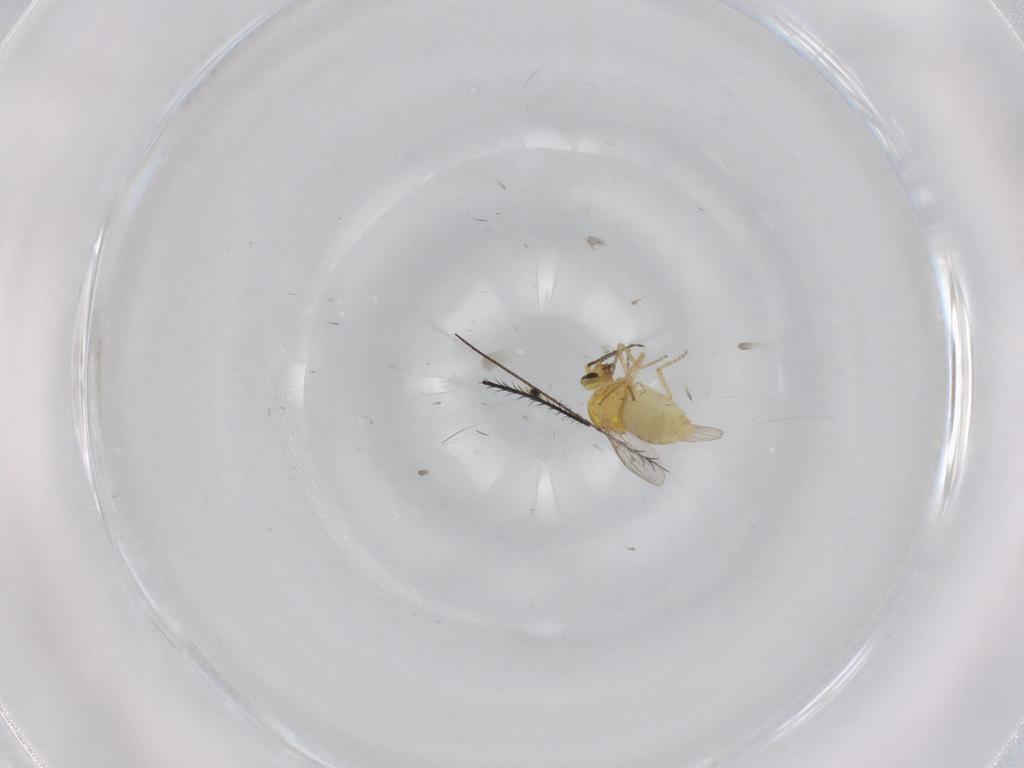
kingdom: Animalia
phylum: Arthropoda
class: Insecta
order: Diptera
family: Ceratopogonidae
